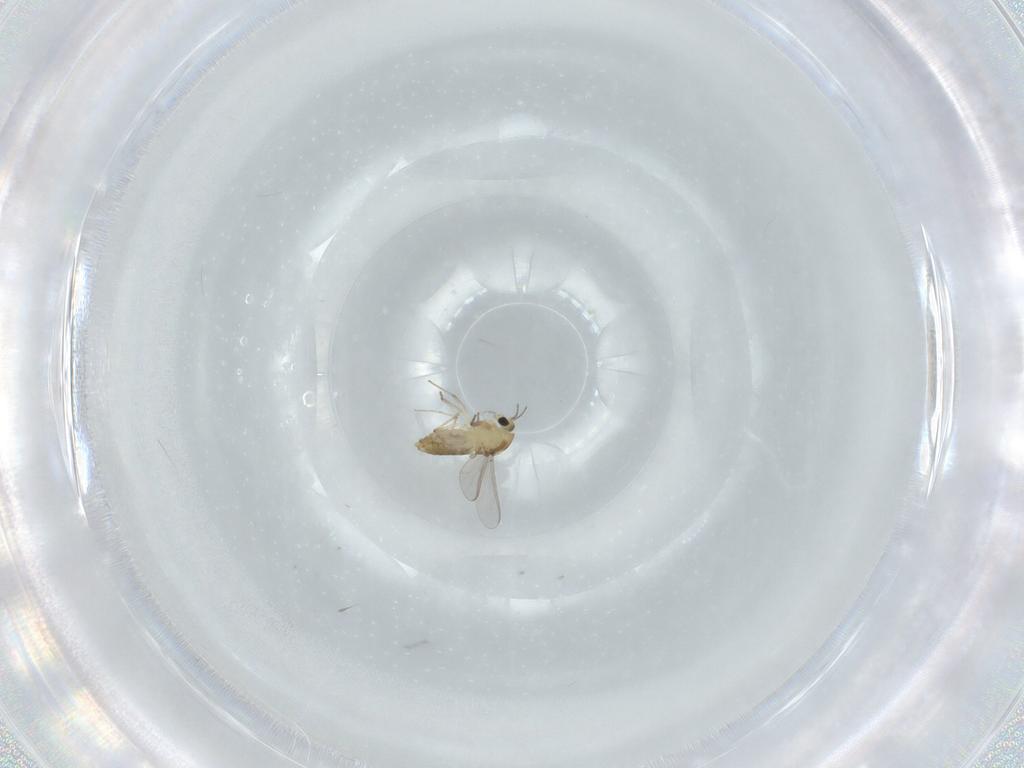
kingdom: Animalia
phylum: Arthropoda
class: Insecta
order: Diptera
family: Chironomidae
